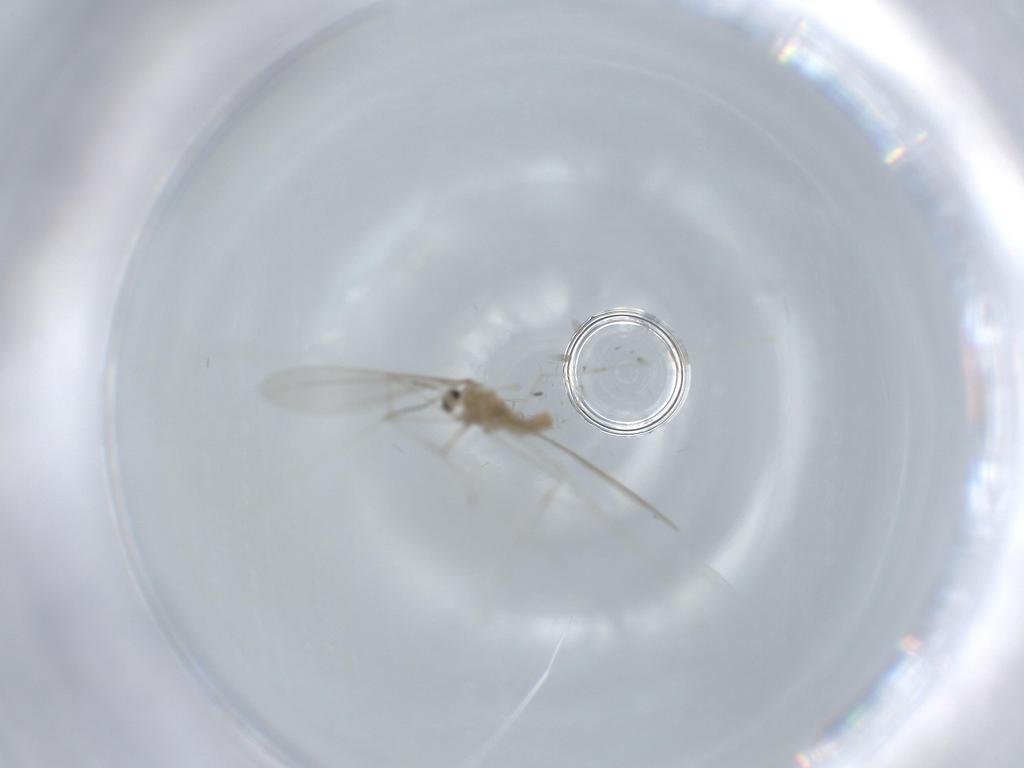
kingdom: Animalia
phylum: Arthropoda
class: Insecta
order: Diptera
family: Cecidomyiidae
